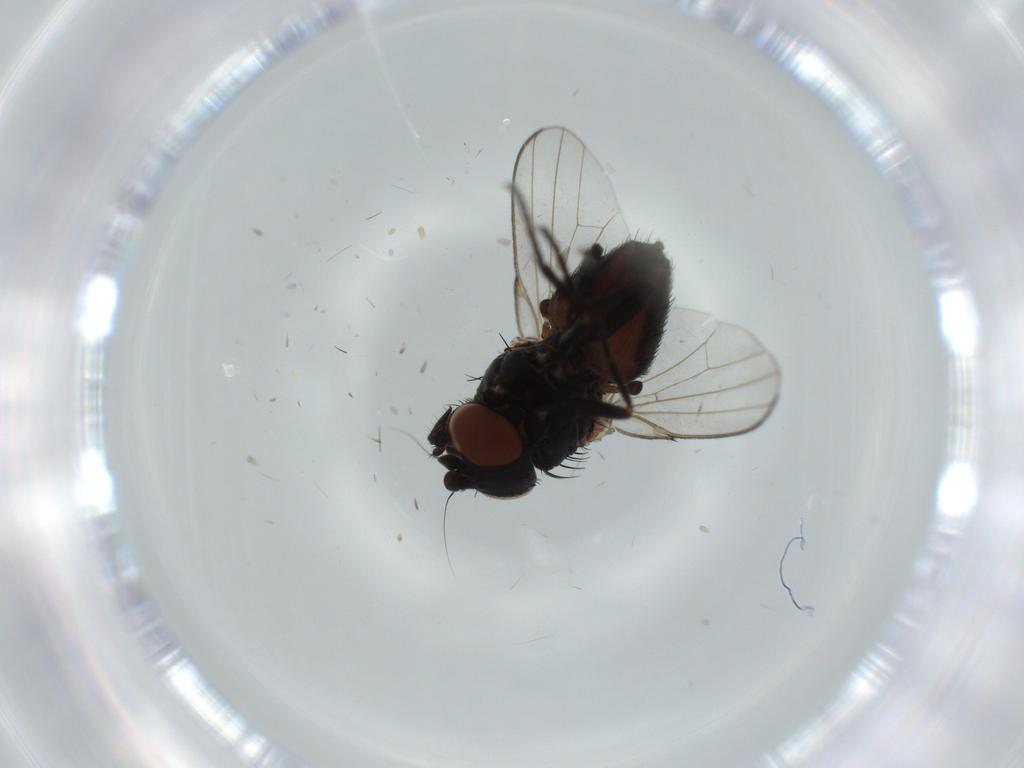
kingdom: Animalia
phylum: Arthropoda
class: Insecta
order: Diptera
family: Milichiidae
